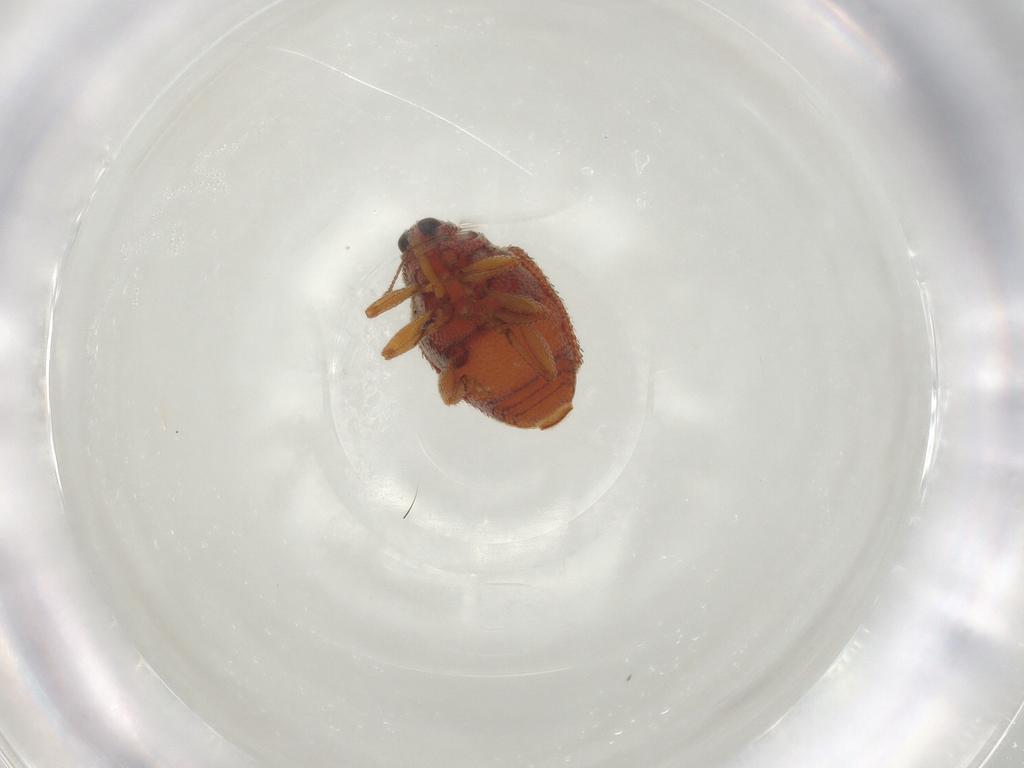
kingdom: Animalia
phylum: Arthropoda
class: Insecta
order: Coleoptera
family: Curculionidae
